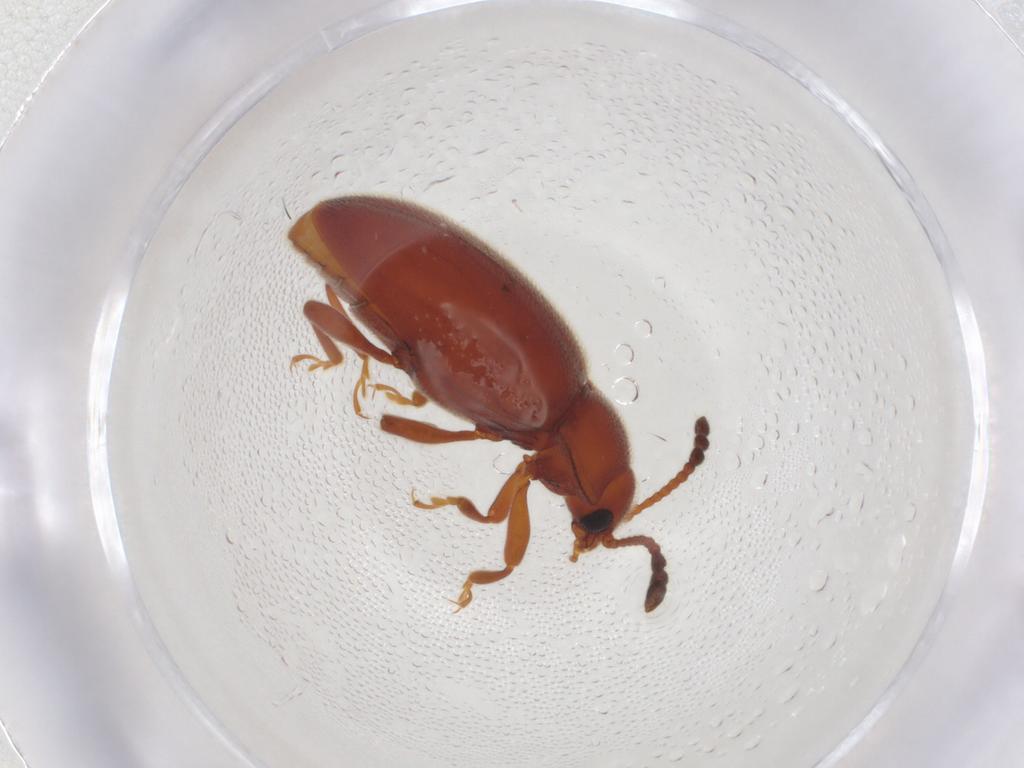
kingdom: Animalia
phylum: Arthropoda
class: Insecta
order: Coleoptera
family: Endomychidae
